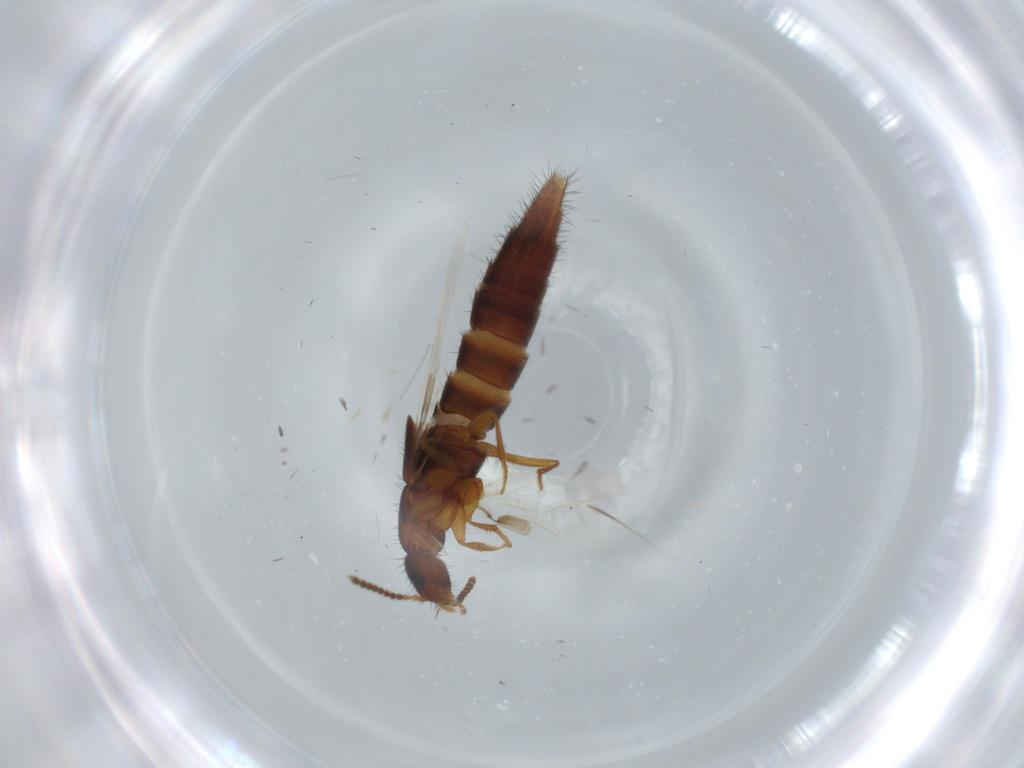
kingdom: Animalia
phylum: Arthropoda
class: Insecta
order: Coleoptera
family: Staphylinidae
